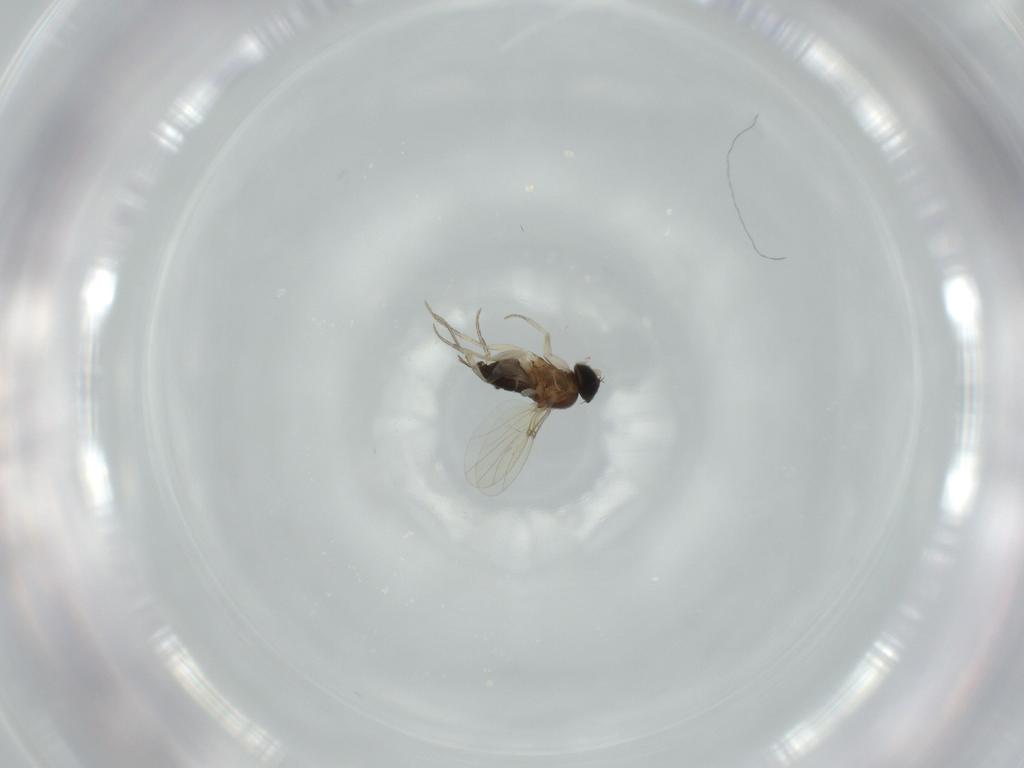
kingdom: Animalia
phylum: Arthropoda
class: Insecta
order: Diptera
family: Phoridae
